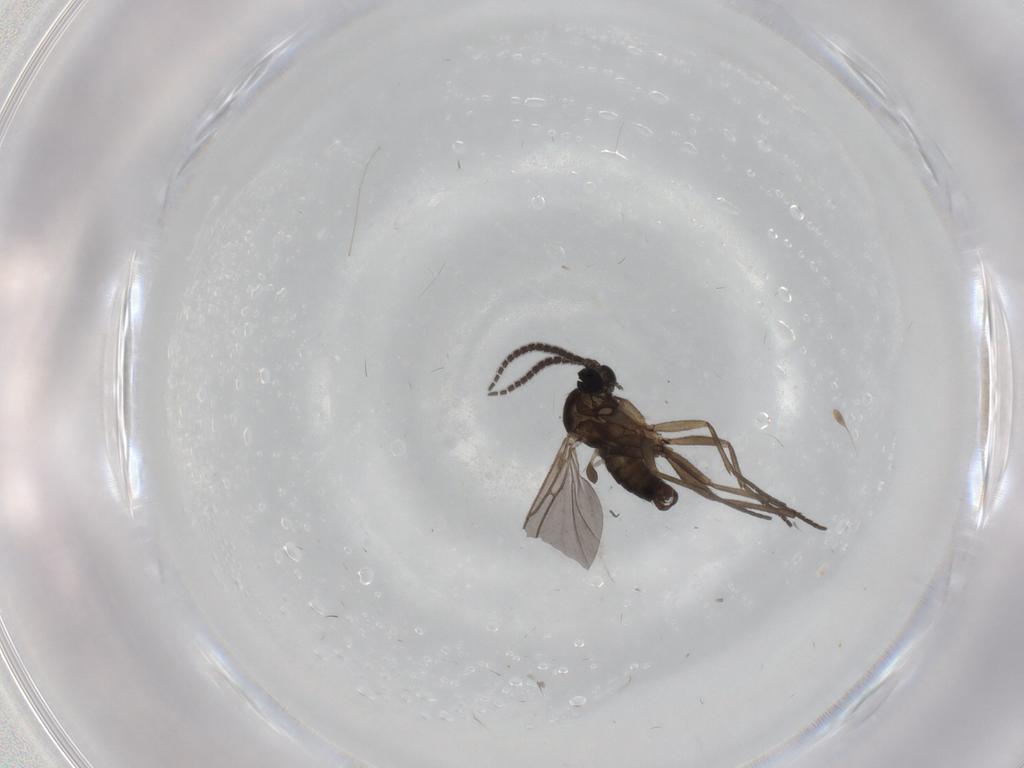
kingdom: Animalia
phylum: Arthropoda
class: Insecta
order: Diptera
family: Sciaridae
